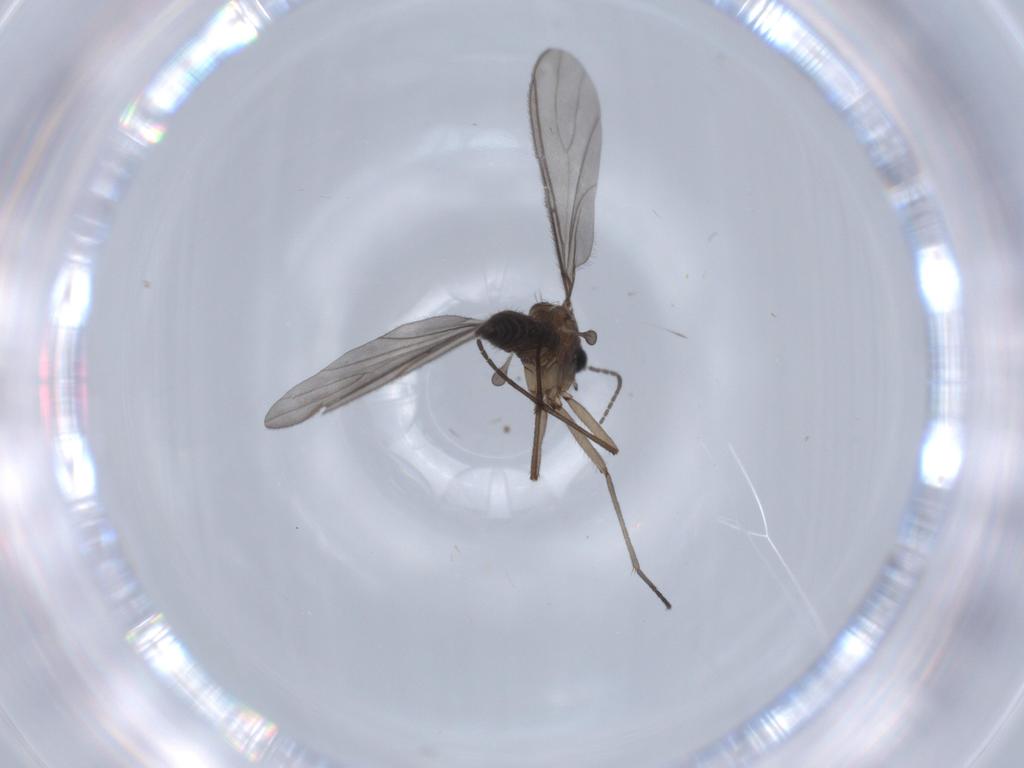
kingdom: Animalia
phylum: Arthropoda
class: Insecta
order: Diptera
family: Sciaridae
